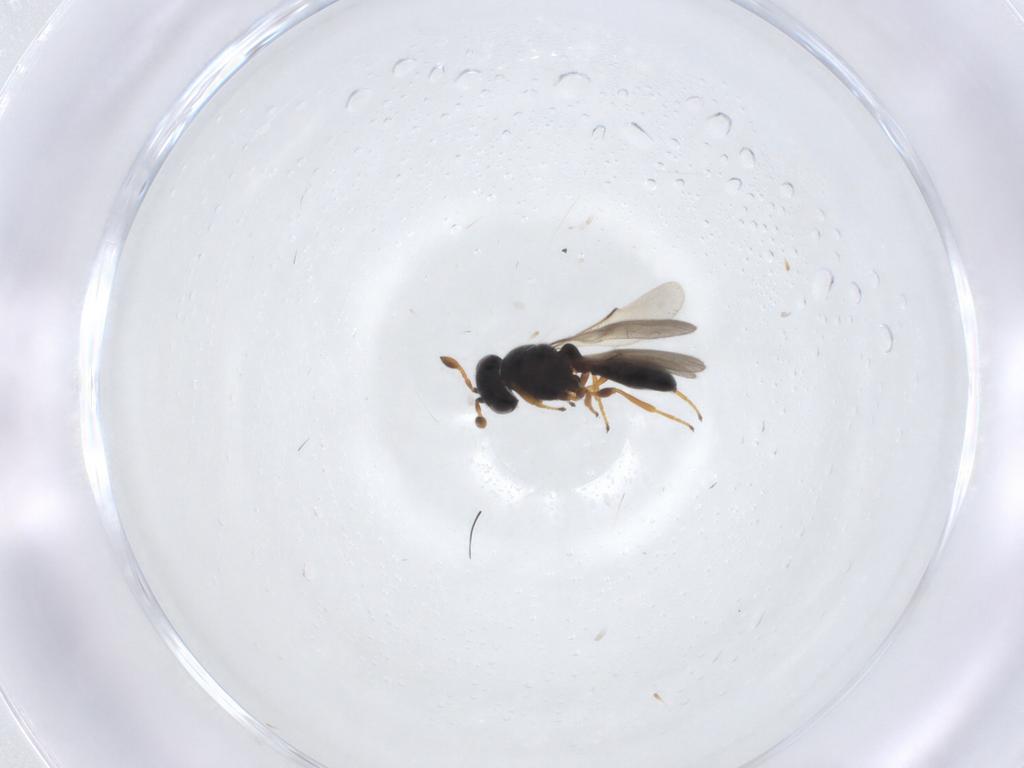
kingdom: Animalia
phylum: Arthropoda
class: Insecta
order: Hymenoptera
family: Scelionidae
